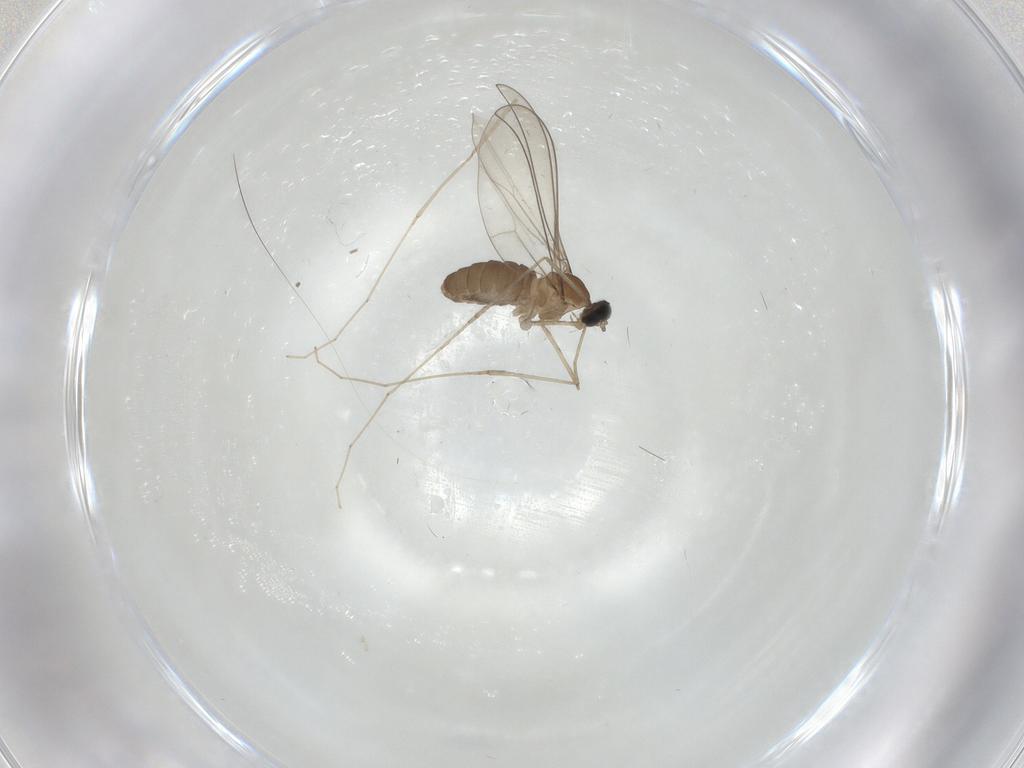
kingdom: Animalia
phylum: Arthropoda
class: Insecta
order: Diptera
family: Cecidomyiidae
